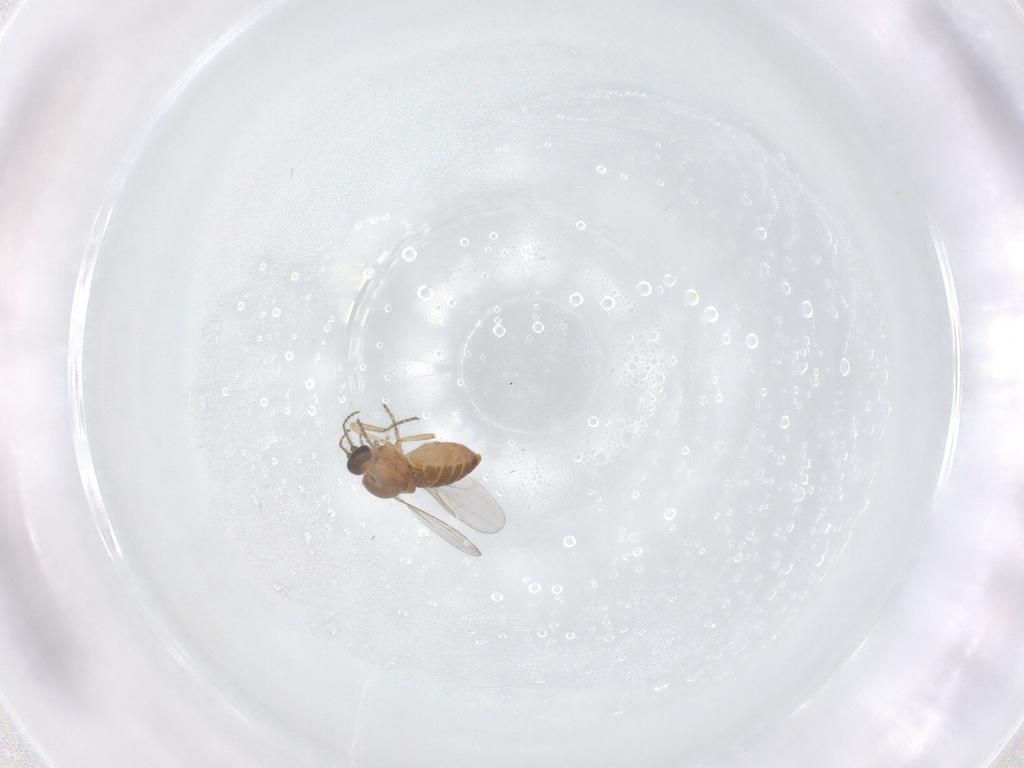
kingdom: Animalia
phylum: Arthropoda
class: Insecta
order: Diptera
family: Ceratopogonidae
